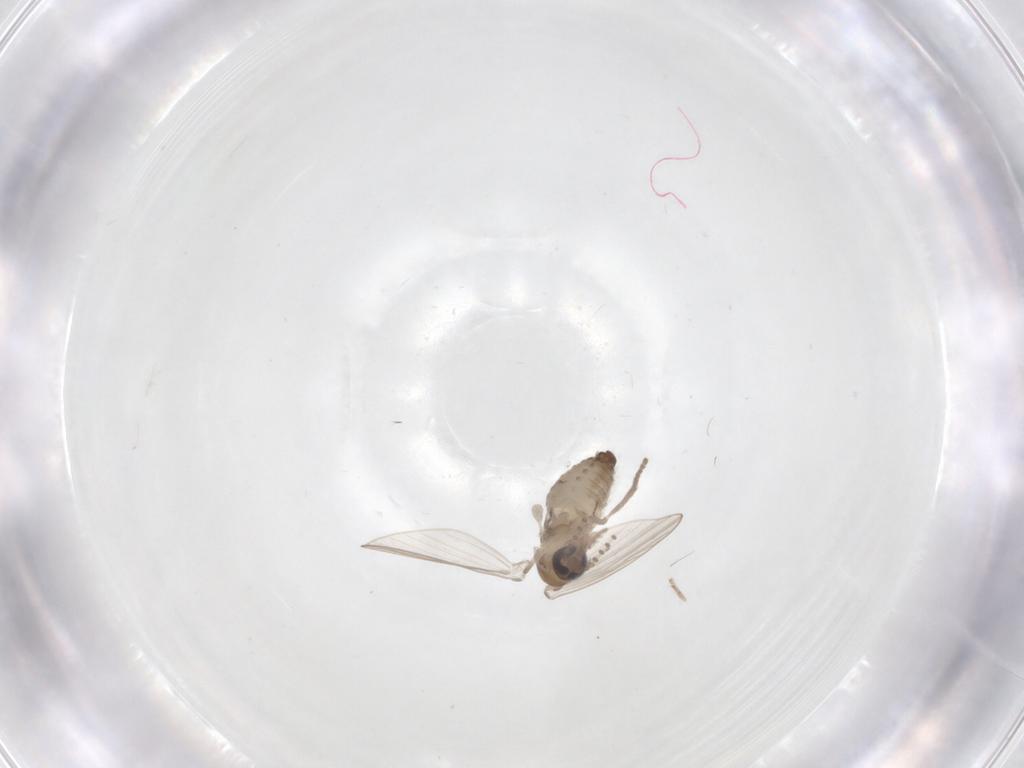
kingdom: Animalia
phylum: Arthropoda
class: Insecta
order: Diptera
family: Psychodidae
